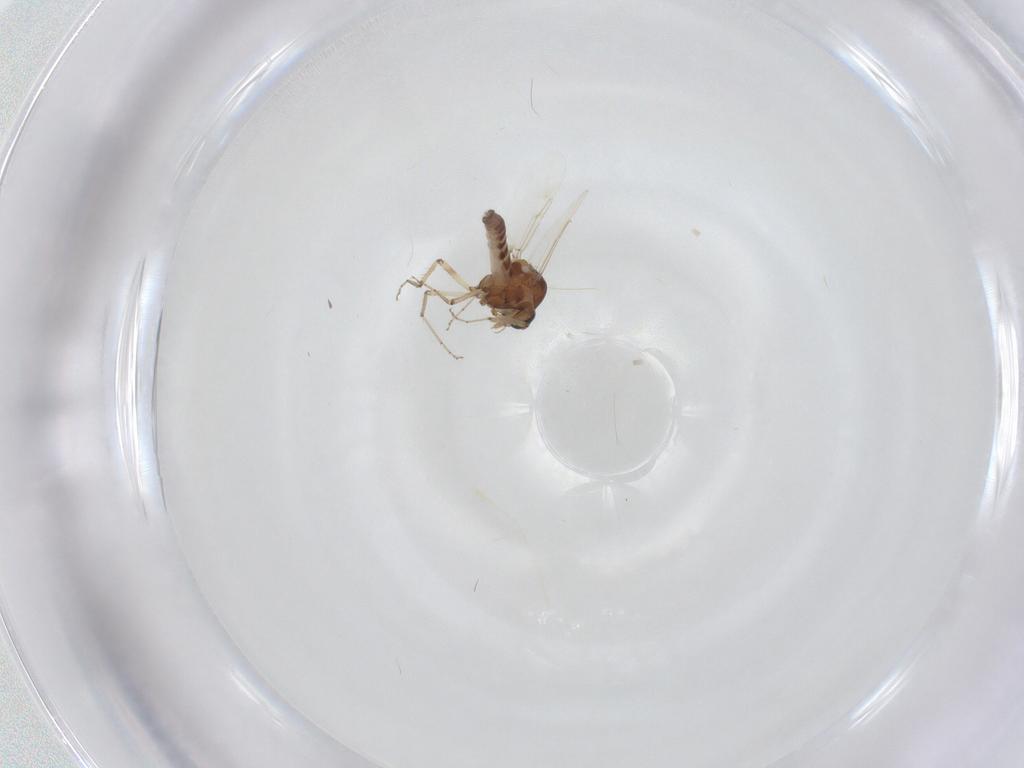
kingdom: Animalia
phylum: Arthropoda
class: Insecta
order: Diptera
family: Ceratopogonidae
